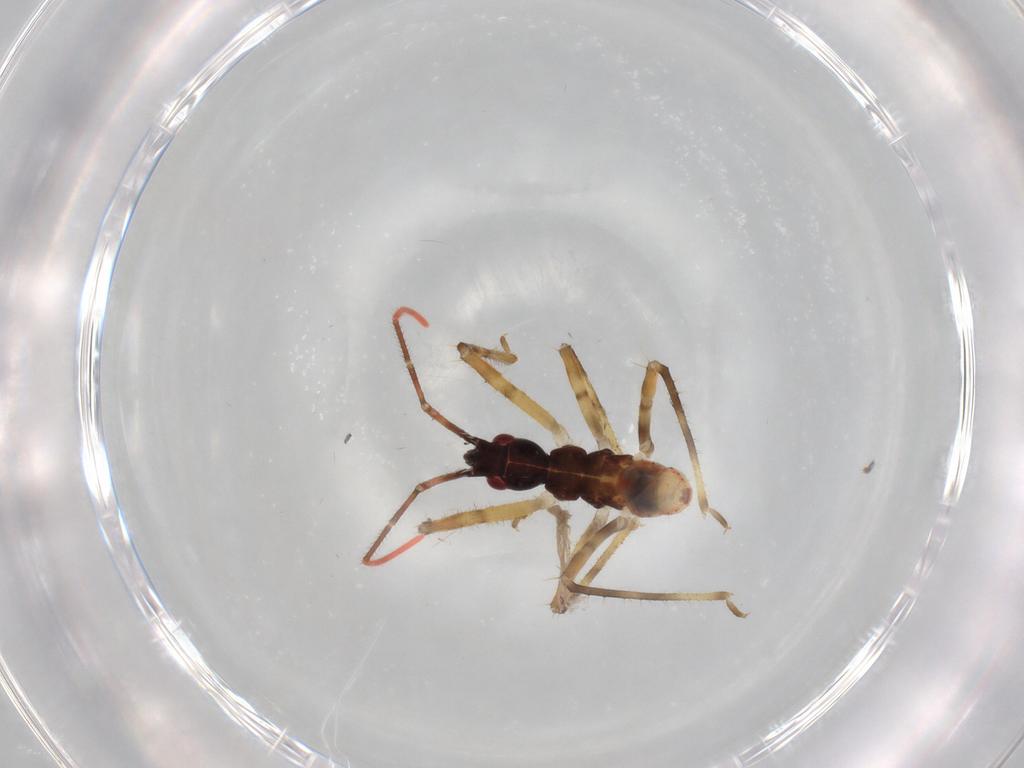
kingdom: Animalia
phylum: Arthropoda
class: Insecta
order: Hemiptera
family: Reduviidae
